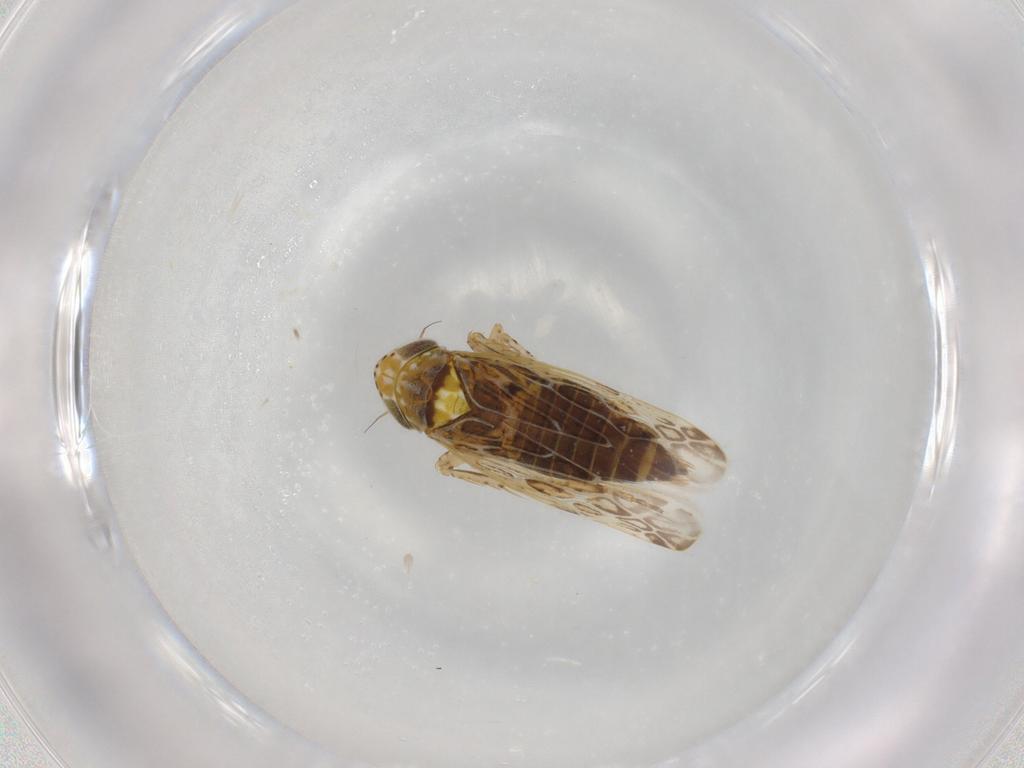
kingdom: Animalia
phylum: Arthropoda
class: Insecta
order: Hemiptera
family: Cicadellidae
